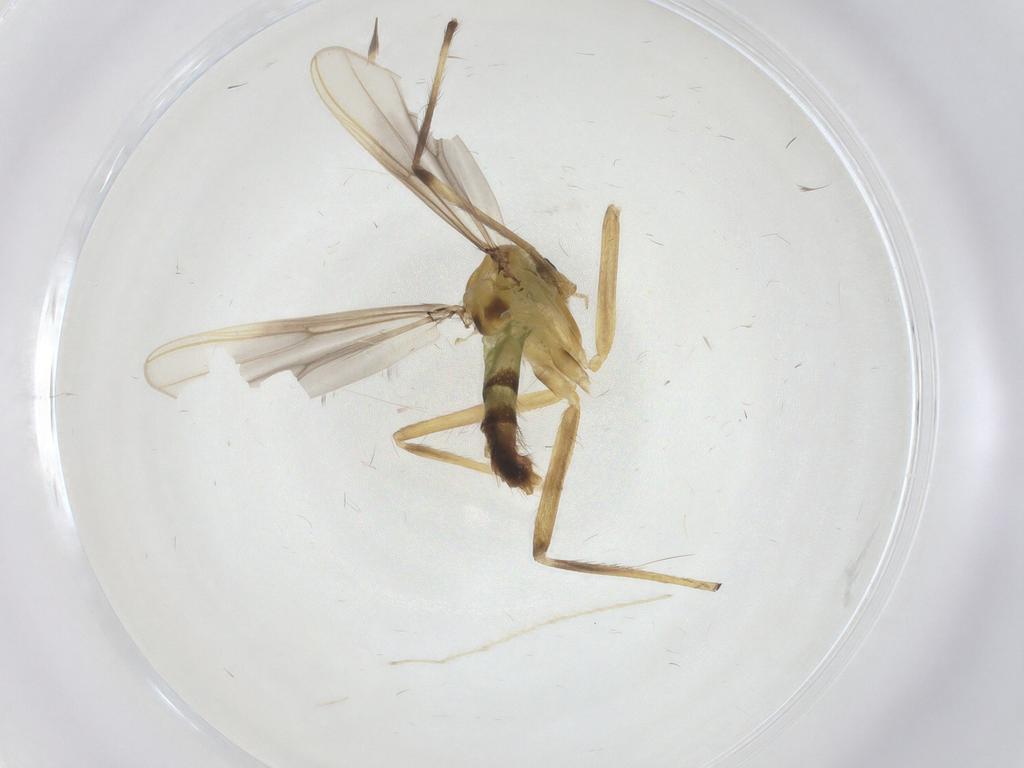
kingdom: Animalia
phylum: Arthropoda
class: Insecta
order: Diptera
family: Chironomidae
